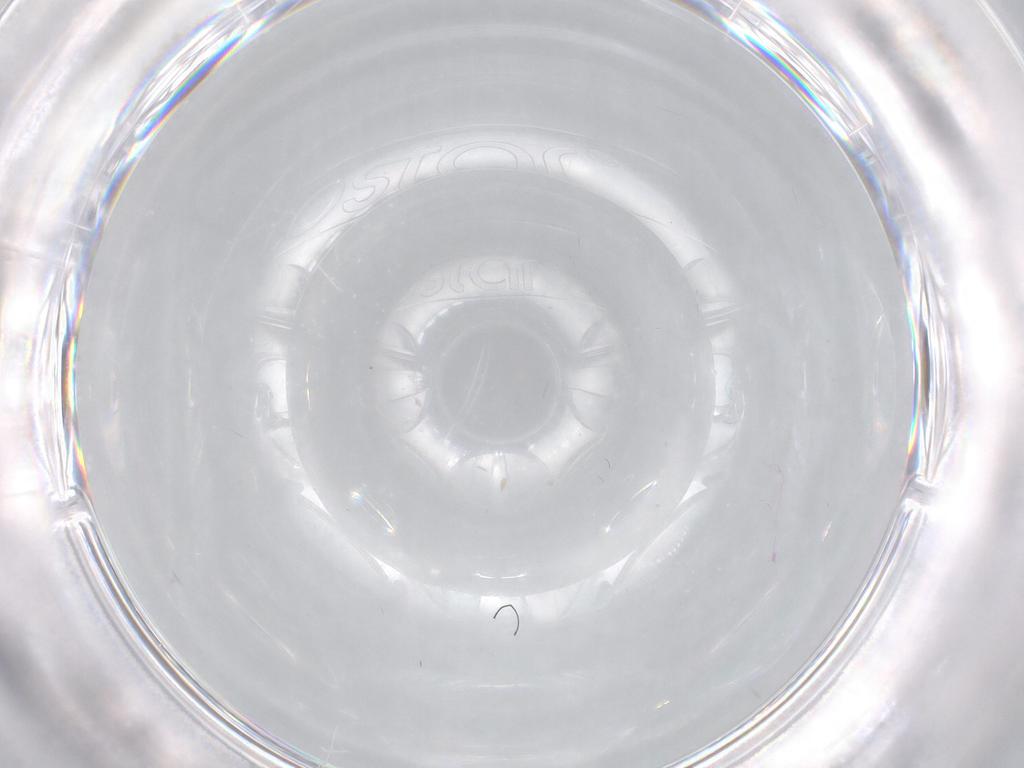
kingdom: Animalia
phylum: Arthropoda
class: Insecta
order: Diptera
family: Cecidomyiidae
